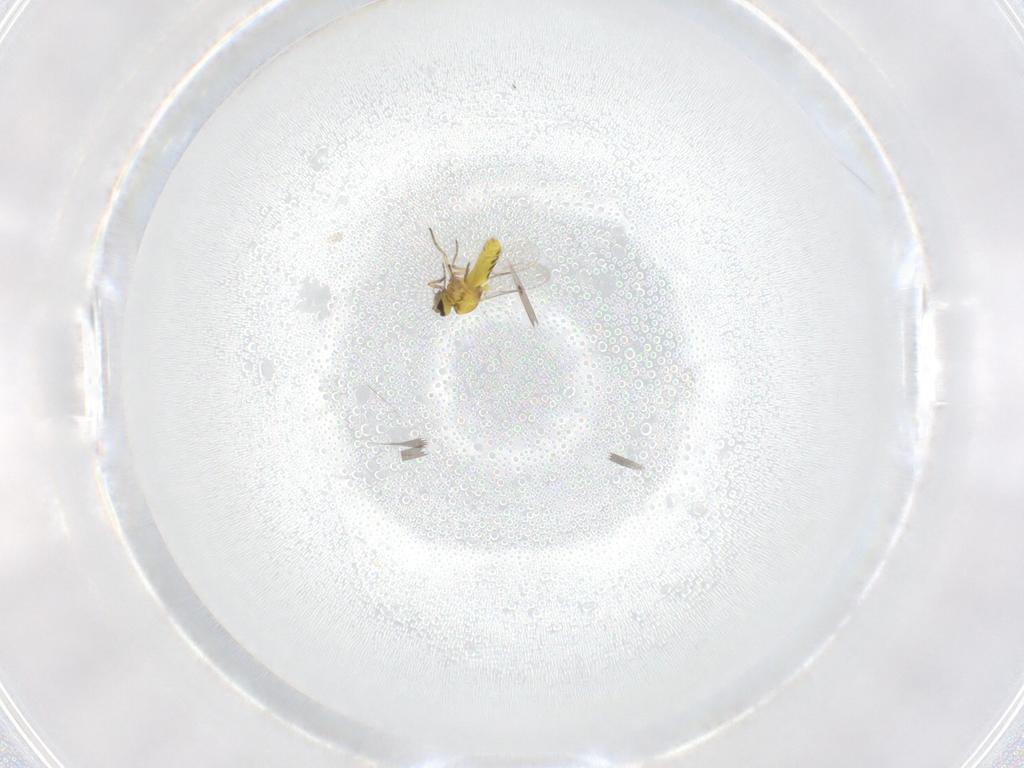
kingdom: Animalia
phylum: Arthropoda
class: Insecta
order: Diptera
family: Ceratopogonidae
